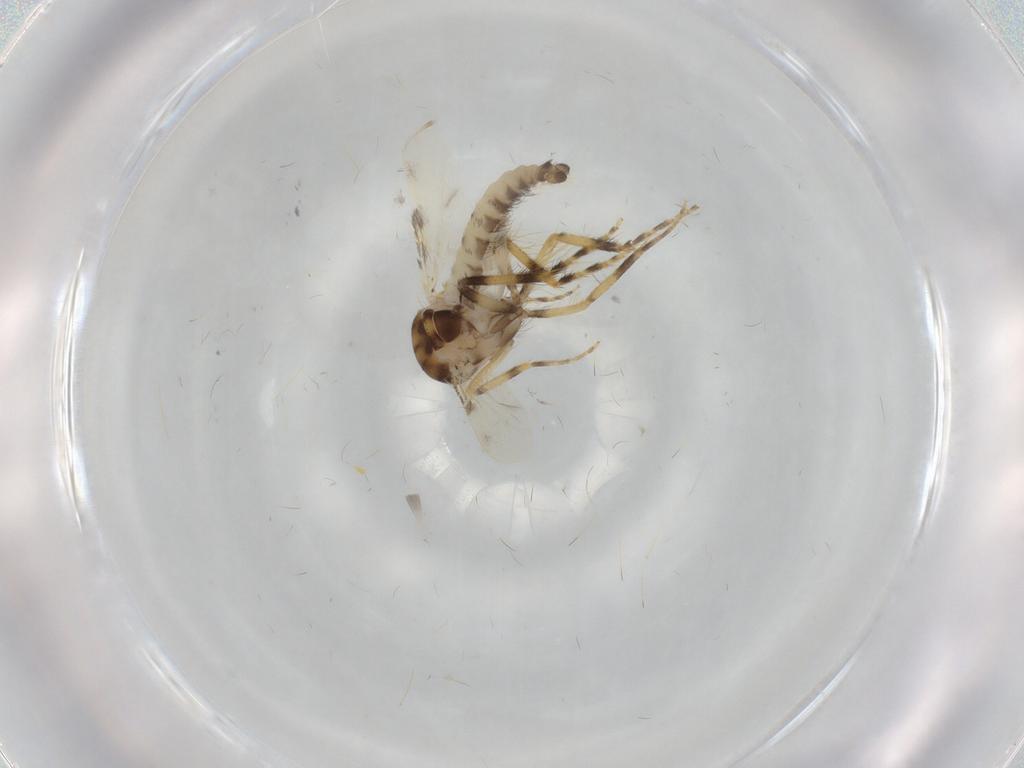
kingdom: Animalia
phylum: Arthropoda
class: Insecta
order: Diptera
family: Ceratopogonidae
